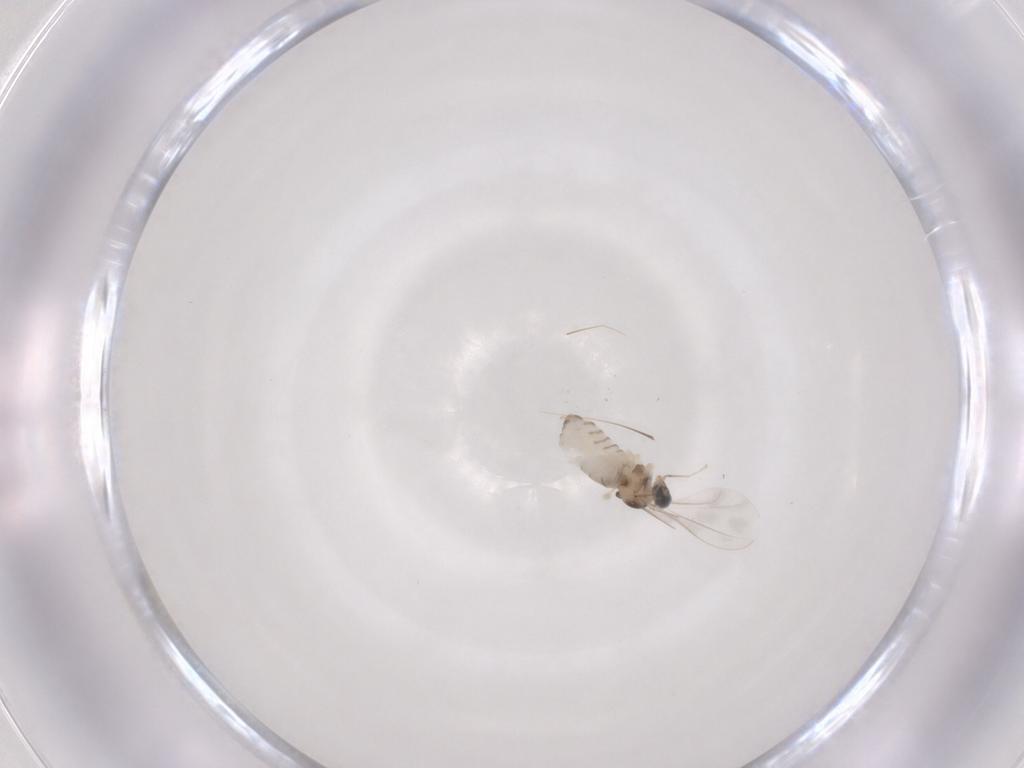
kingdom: Animalia
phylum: Arthropoda
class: Insecta
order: Diptera
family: Cecidomyiidae
